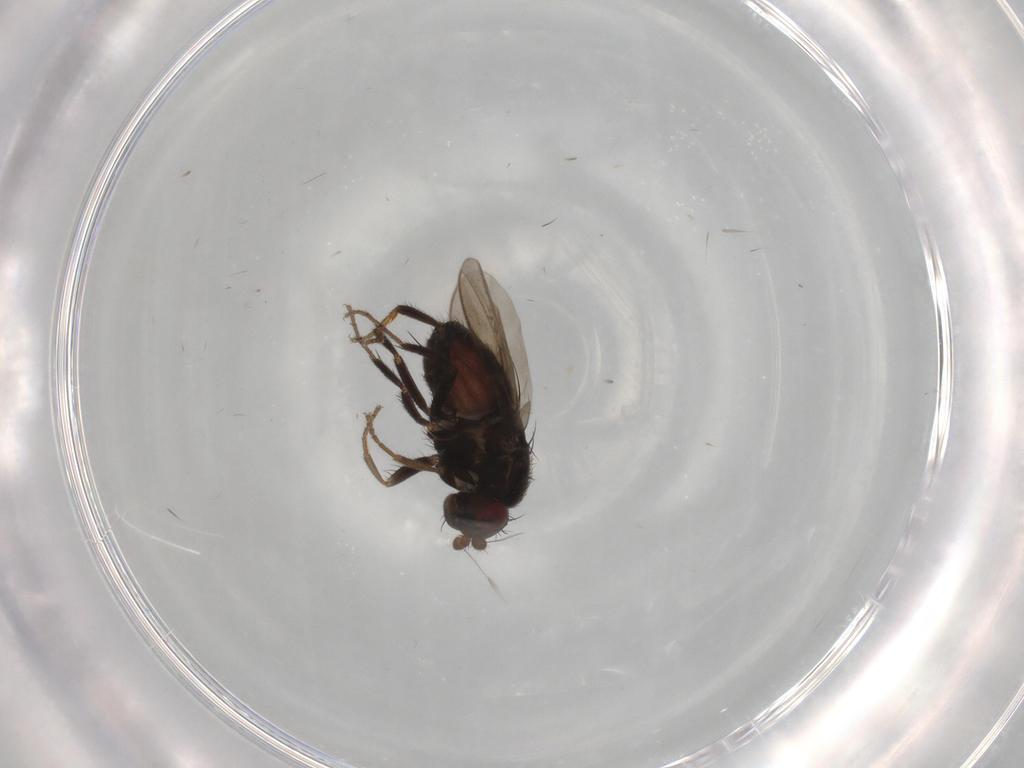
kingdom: Animalia
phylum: Arthropoda
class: Insecta
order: Diptera
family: Sphaeroceridae
